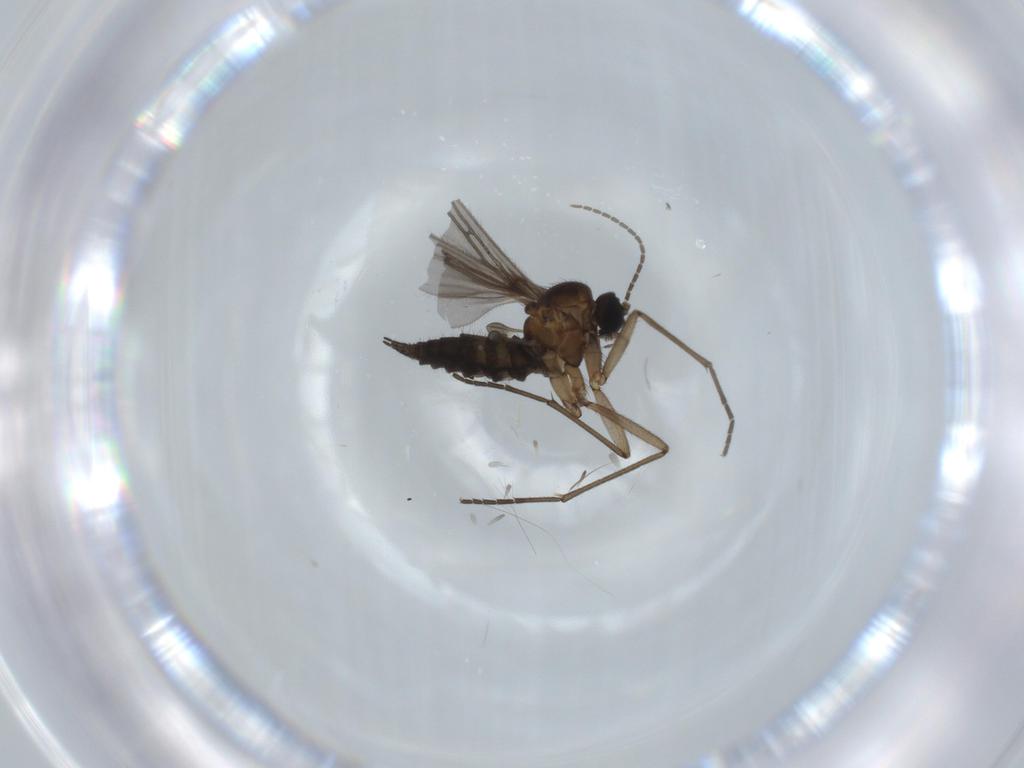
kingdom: Animalia
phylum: Arthropoda
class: Insecta
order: Diptera
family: Sciaridae
